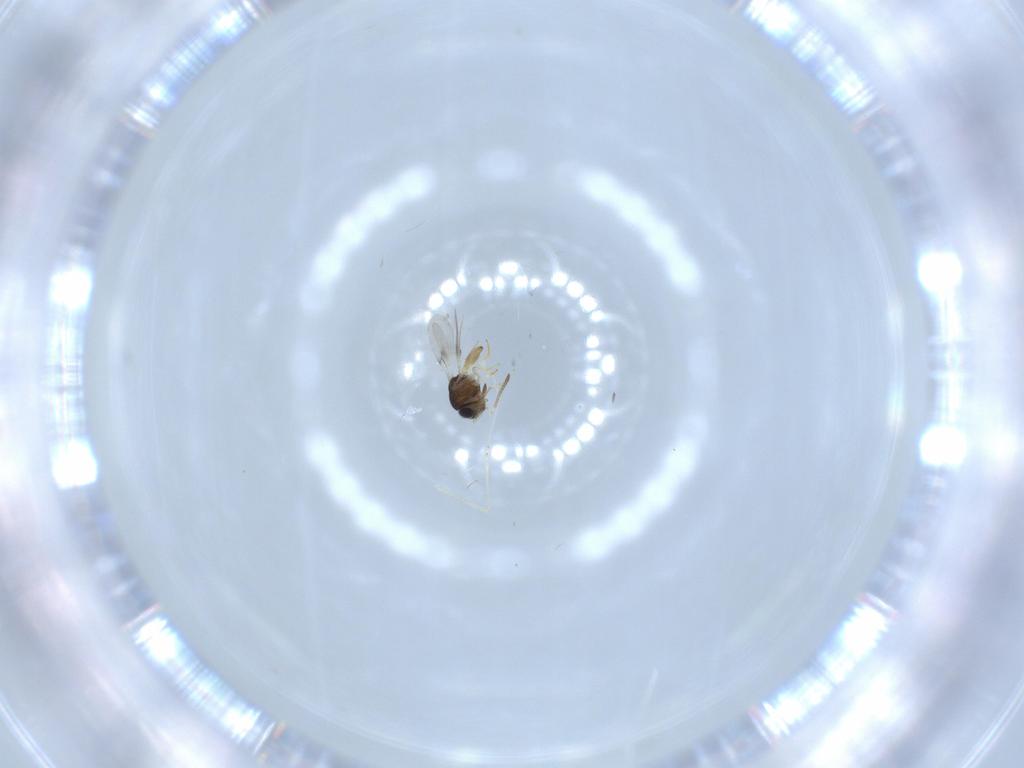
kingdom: Animalia
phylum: Arthropoda
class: Insecta
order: Hymenoptera
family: Scelionidae
